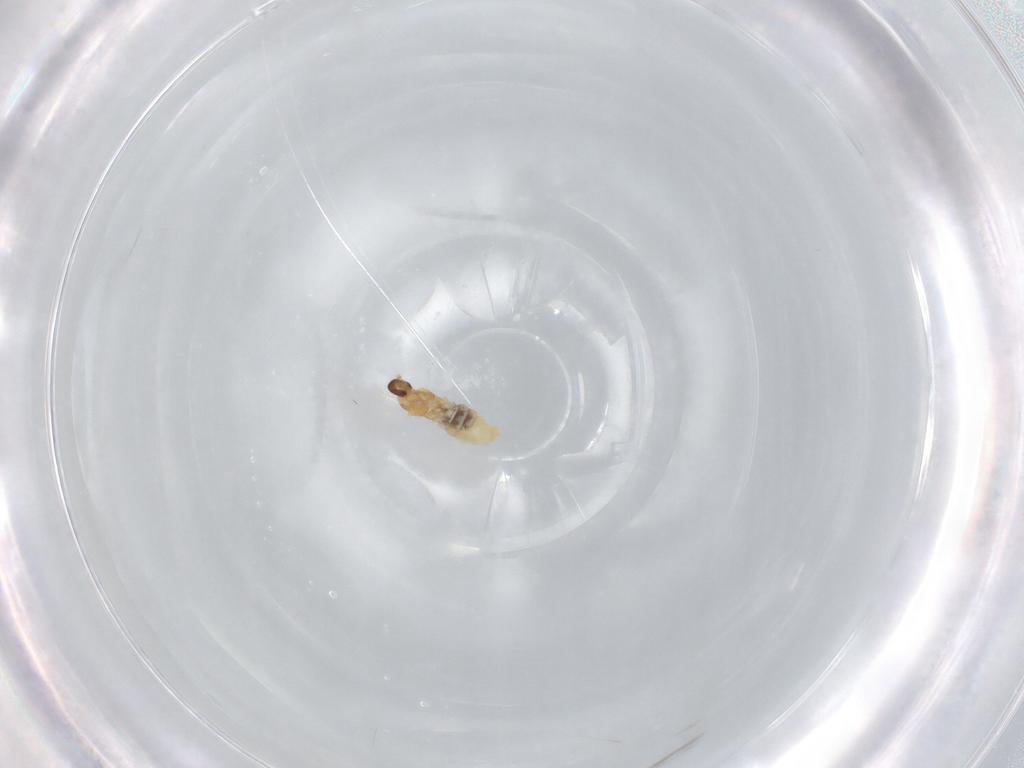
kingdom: Animalia
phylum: Arthropoda
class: Insecta
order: Diptera
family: Cecidomyiidae
